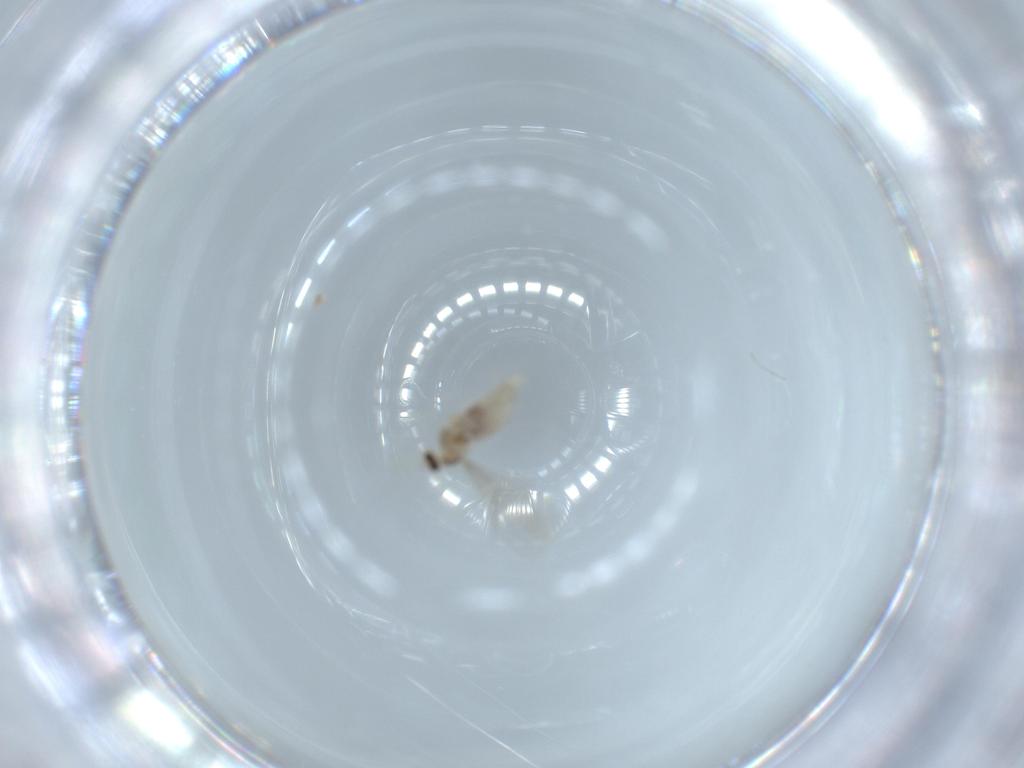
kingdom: Animalia
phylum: Arthropoda
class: Insecta
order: Diptera
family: Cecidomyiidae
